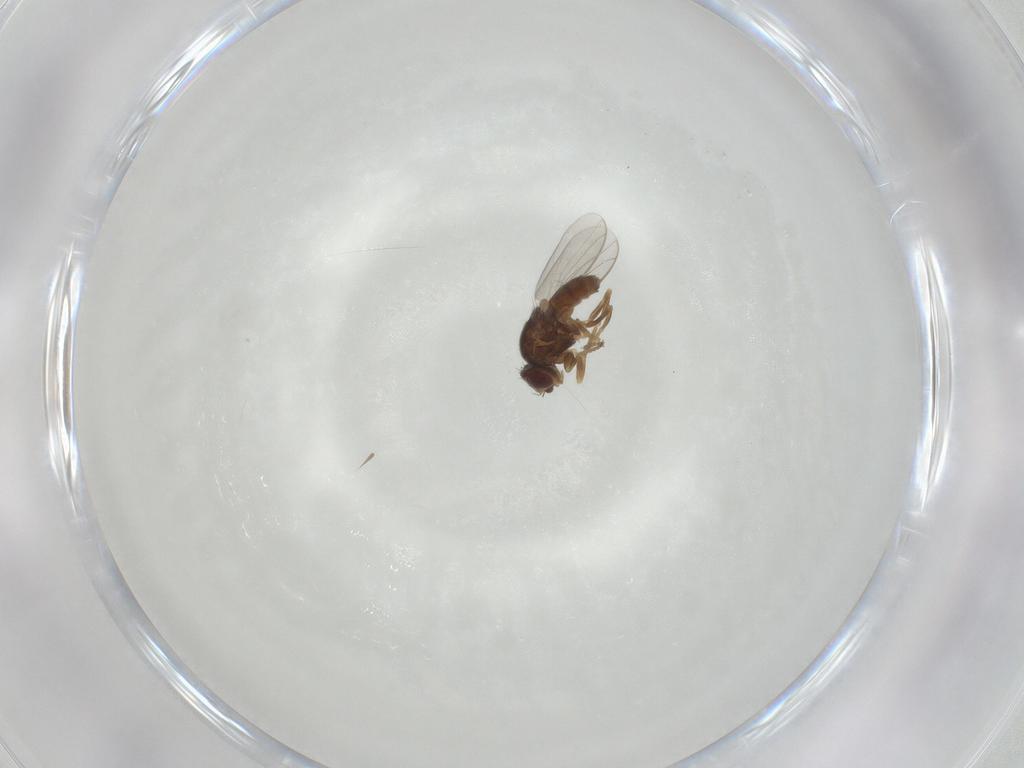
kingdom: Animalia
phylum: Arthropoda
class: Insecta
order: Diptera
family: Chloropidae
